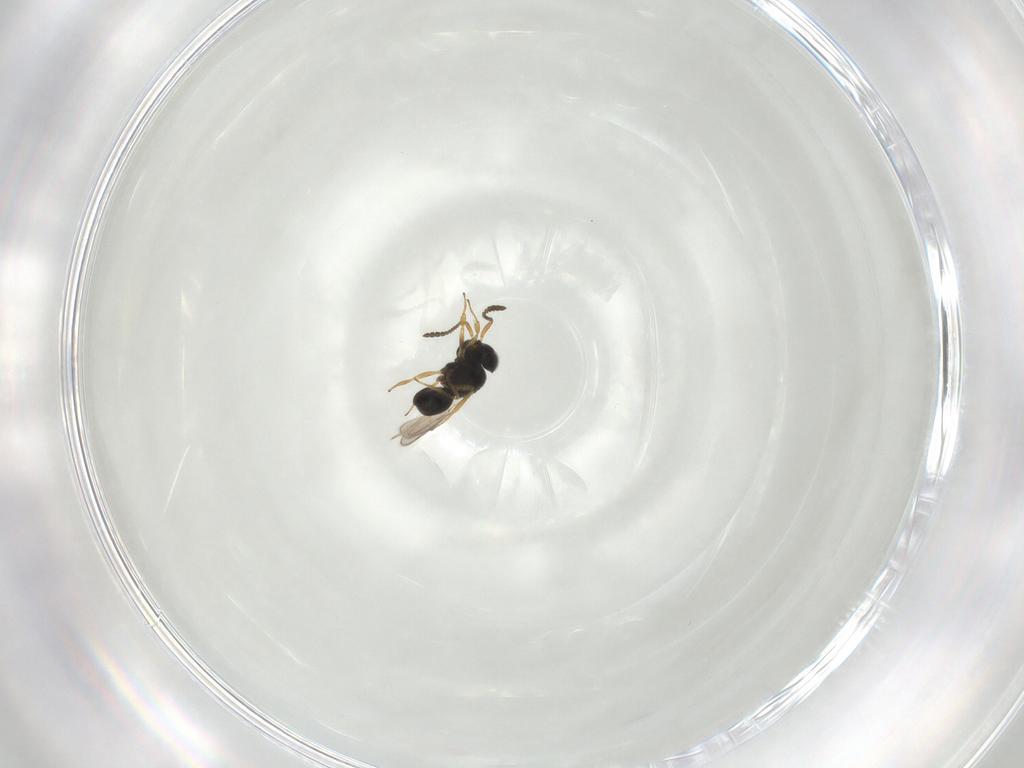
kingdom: Animalia
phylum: Arthropoda
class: Insecta
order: Hymenoptera
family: Scelionidae
